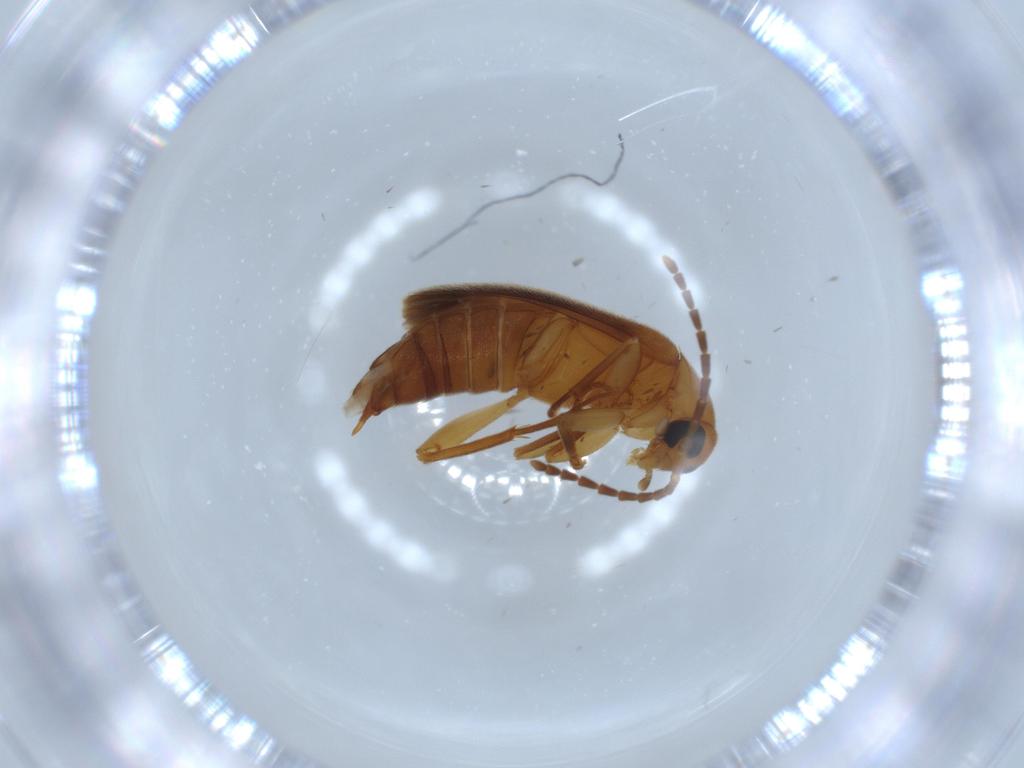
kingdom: Animalia
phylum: Arthropoda
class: Insecta
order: Coleoptera
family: Scraptiidae
